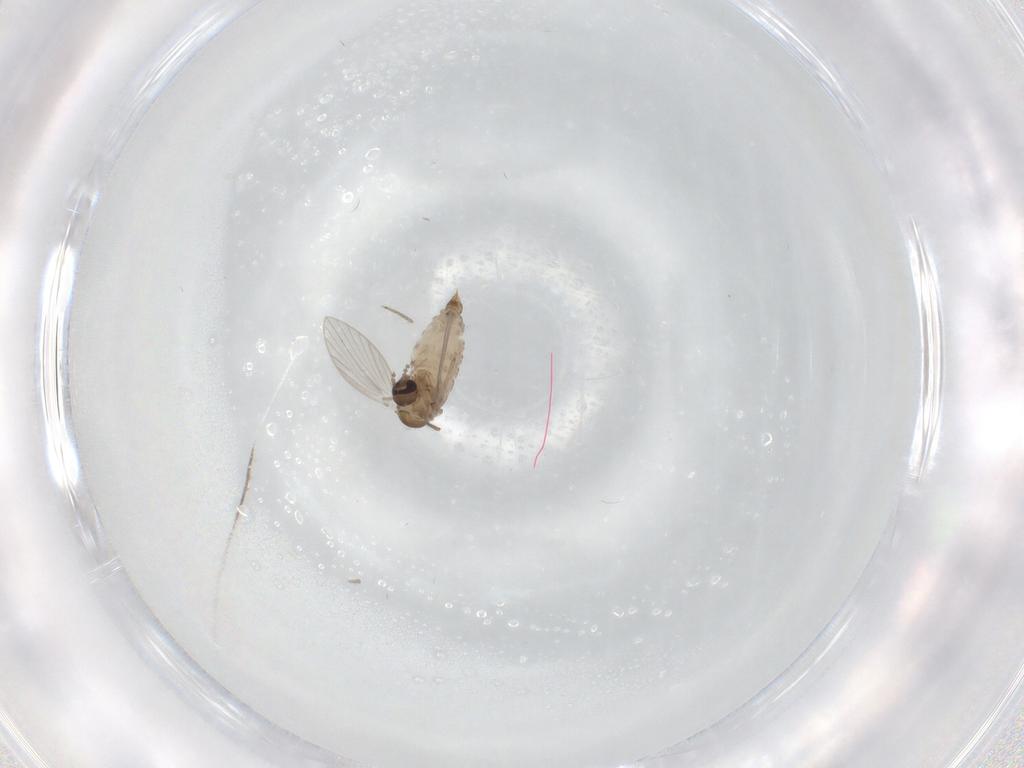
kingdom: Animalia
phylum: Arthropoda
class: Insecta
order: Diptera
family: Psychodidae
